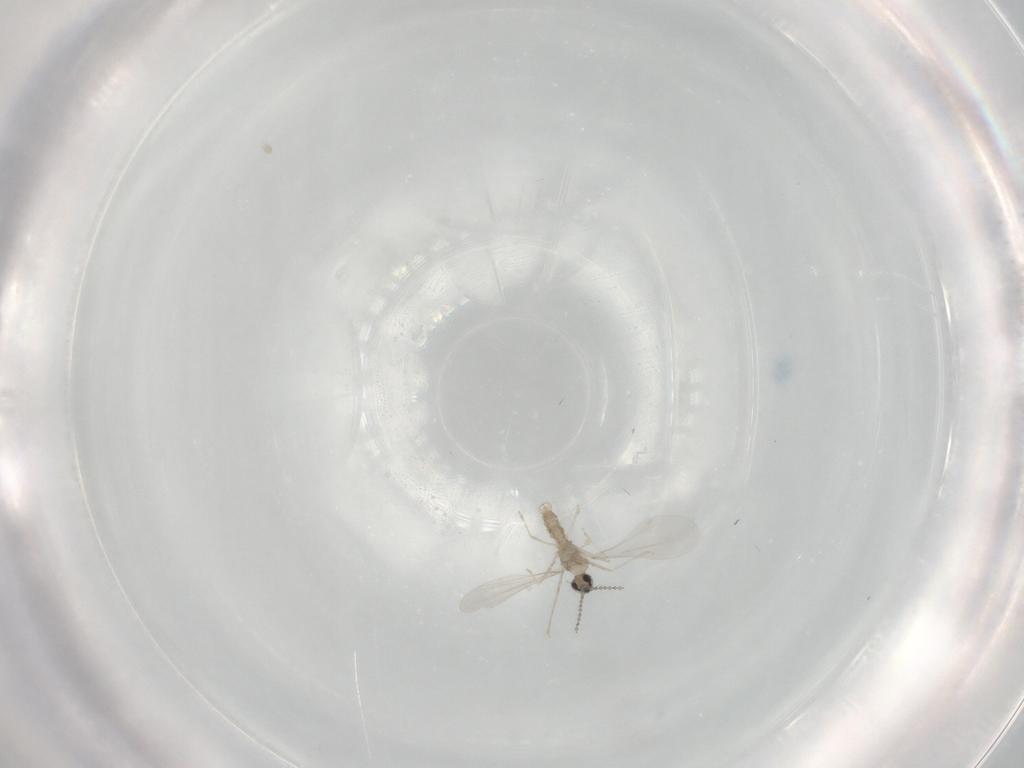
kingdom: Animalia
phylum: Arthropoda
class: Insecta
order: Diptera
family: Cecidomyiidae
